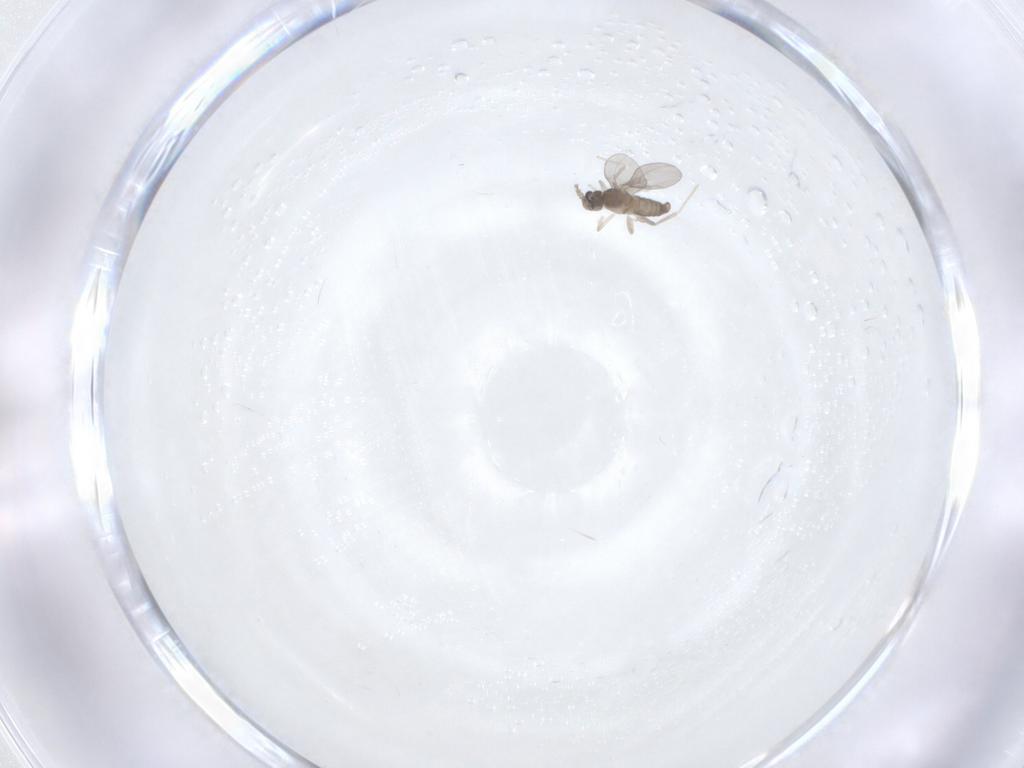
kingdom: Animalia
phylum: Arthropoda
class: Insecta
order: Diptera
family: Cecidomyiidae
